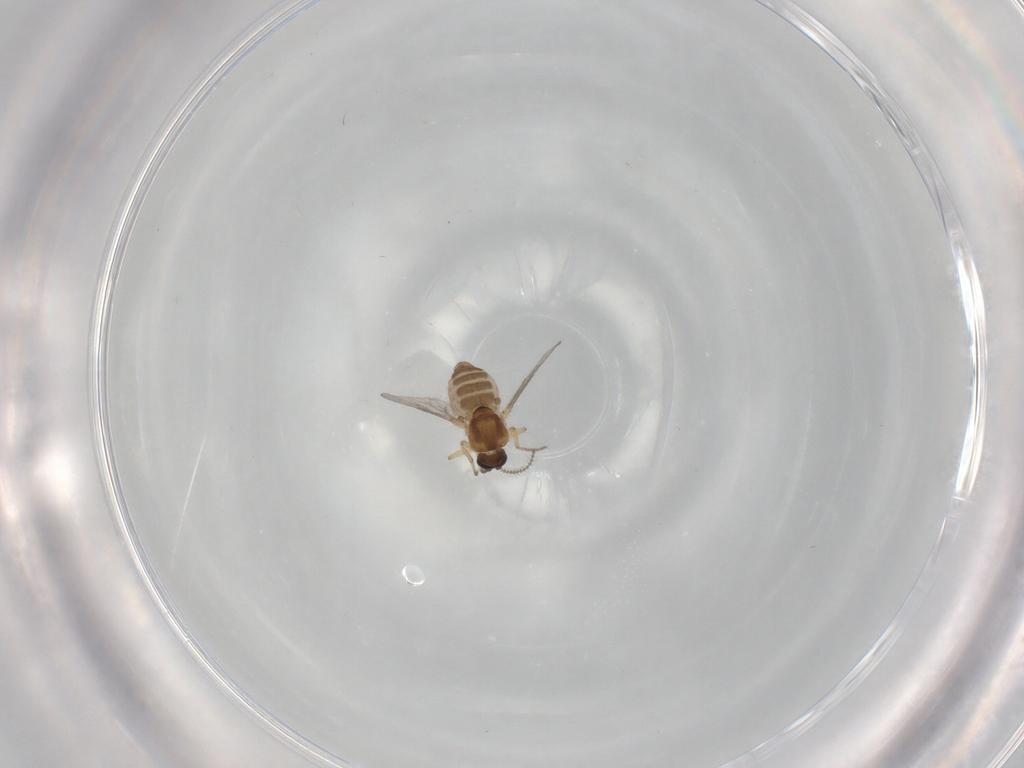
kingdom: Animalia
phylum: Arthropoda
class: Insecta
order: Diptera
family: Ceratopogonidae
